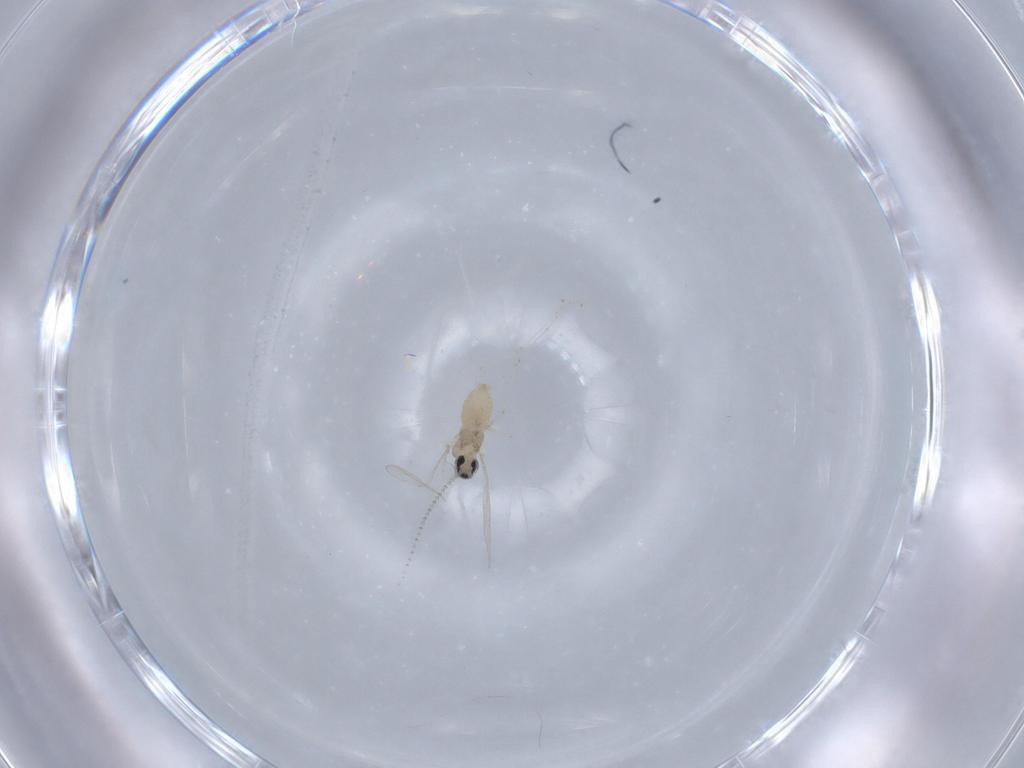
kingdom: Animalia
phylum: Arthropoda
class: Insecta
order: Diptera
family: Cecidomyiidae
